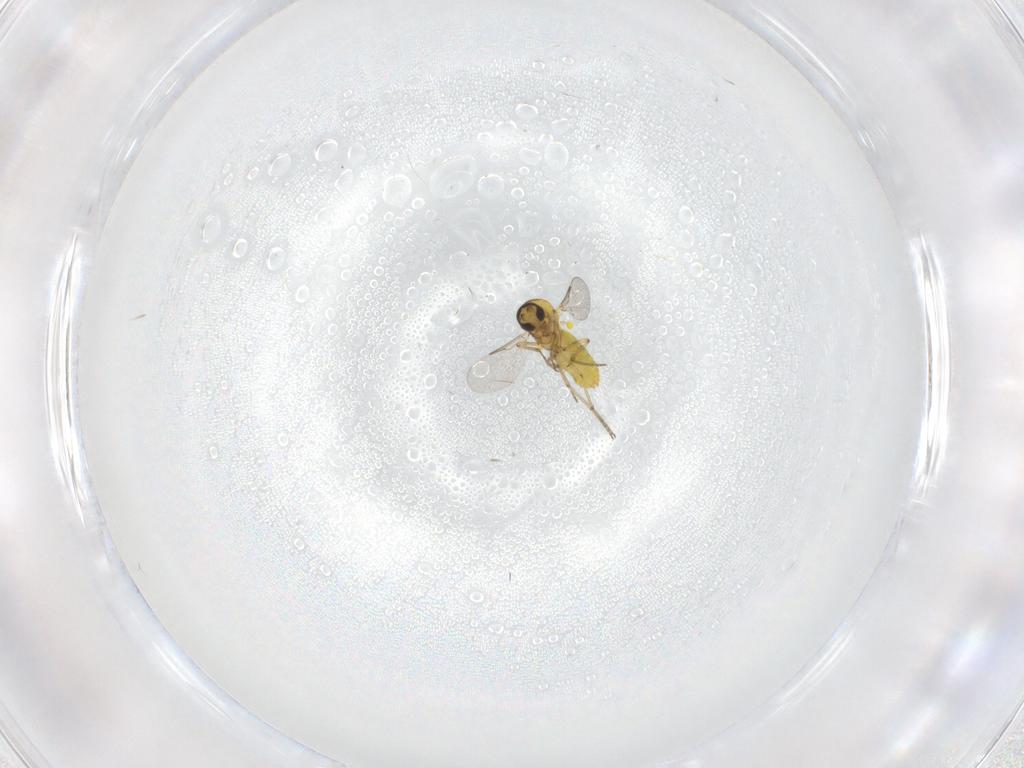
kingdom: Animalia
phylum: Arthropoda
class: Insecta
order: Diptera
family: Ceratopogonidae
